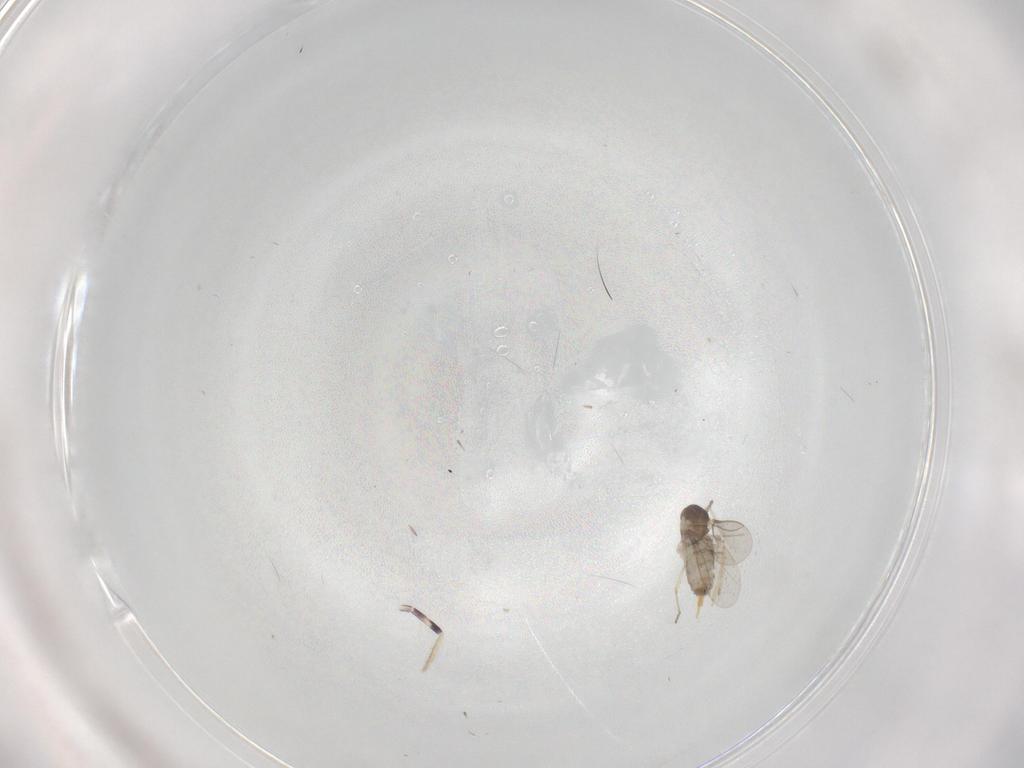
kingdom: Animalia
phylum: Arthropoda
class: Insecta
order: Diptera
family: Cecidomyiidae
